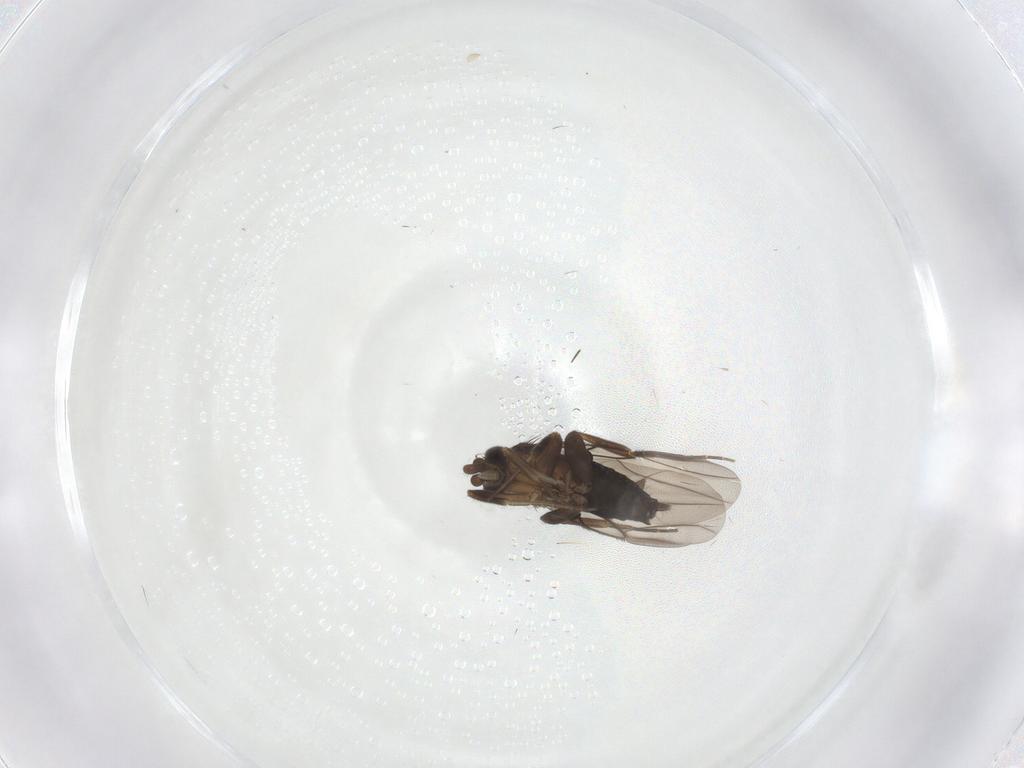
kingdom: Animalia
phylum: Arthropoda
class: Insecta
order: Diptera
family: Phoridae
